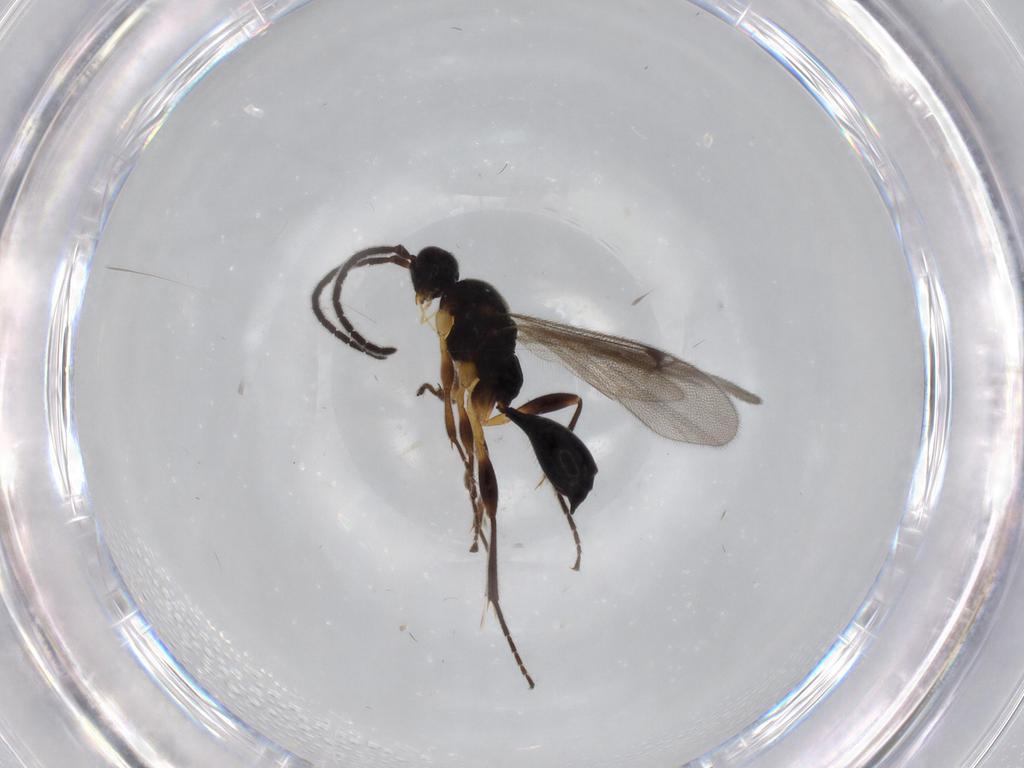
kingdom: Animalia
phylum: Arthropoda
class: Insecta
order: Hymenoptera
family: Proctotrupidae
